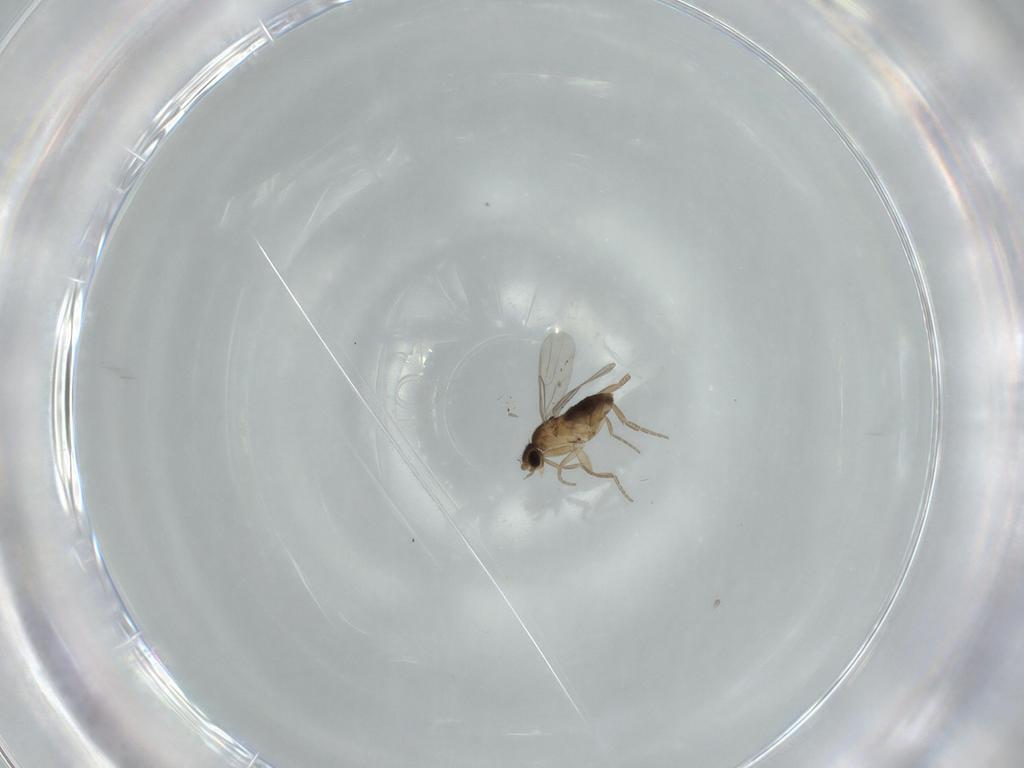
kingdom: Animalia
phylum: Arthropoda
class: Insecta
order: Diptera
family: Phoridae
